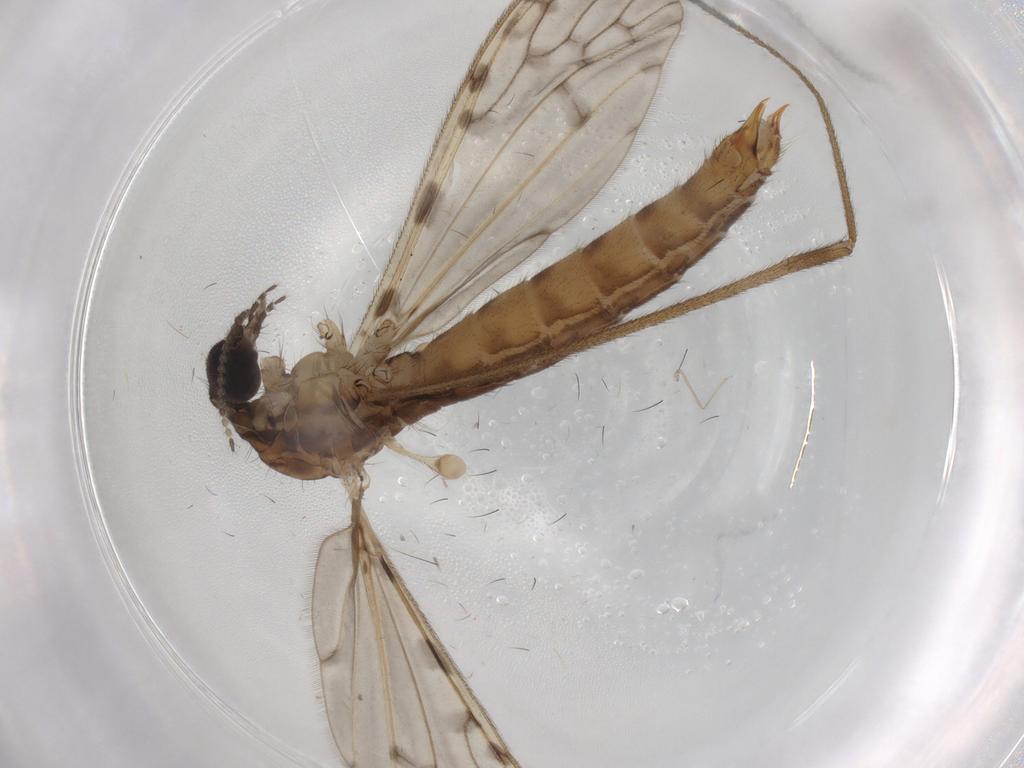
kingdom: Animalia
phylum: Arthropoda
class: Insecta
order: Diptera
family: Limoniidae
